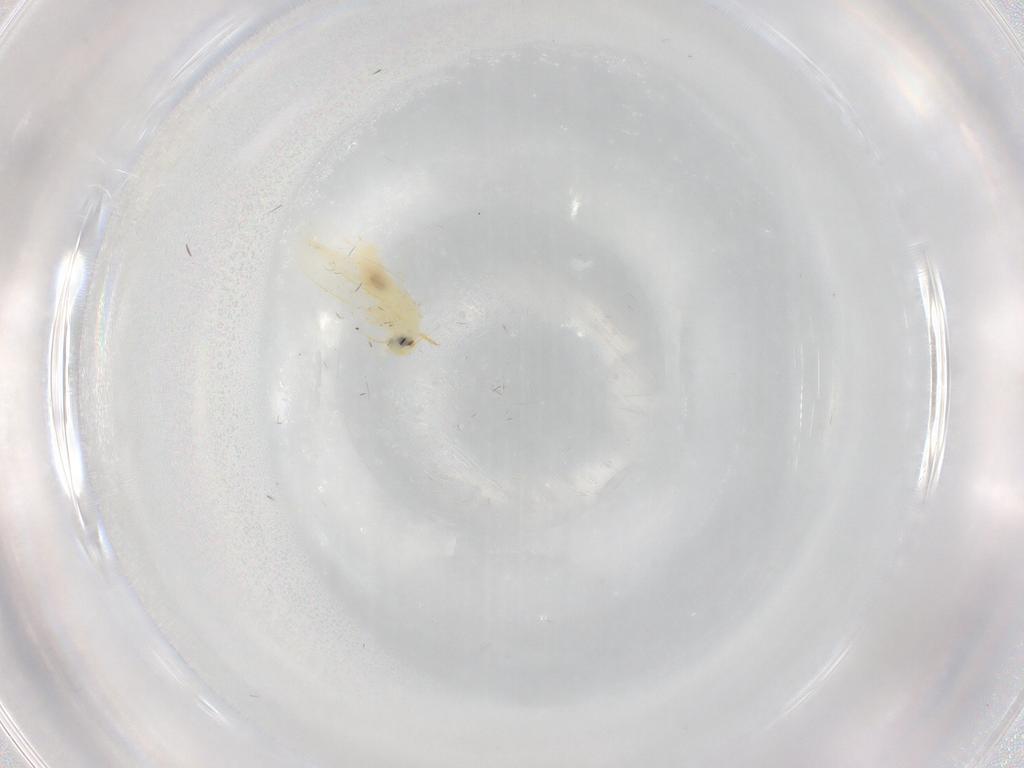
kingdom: Animalia
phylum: Arthropoda
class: Insecta
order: Hemiptera
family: Aleyrodidae
